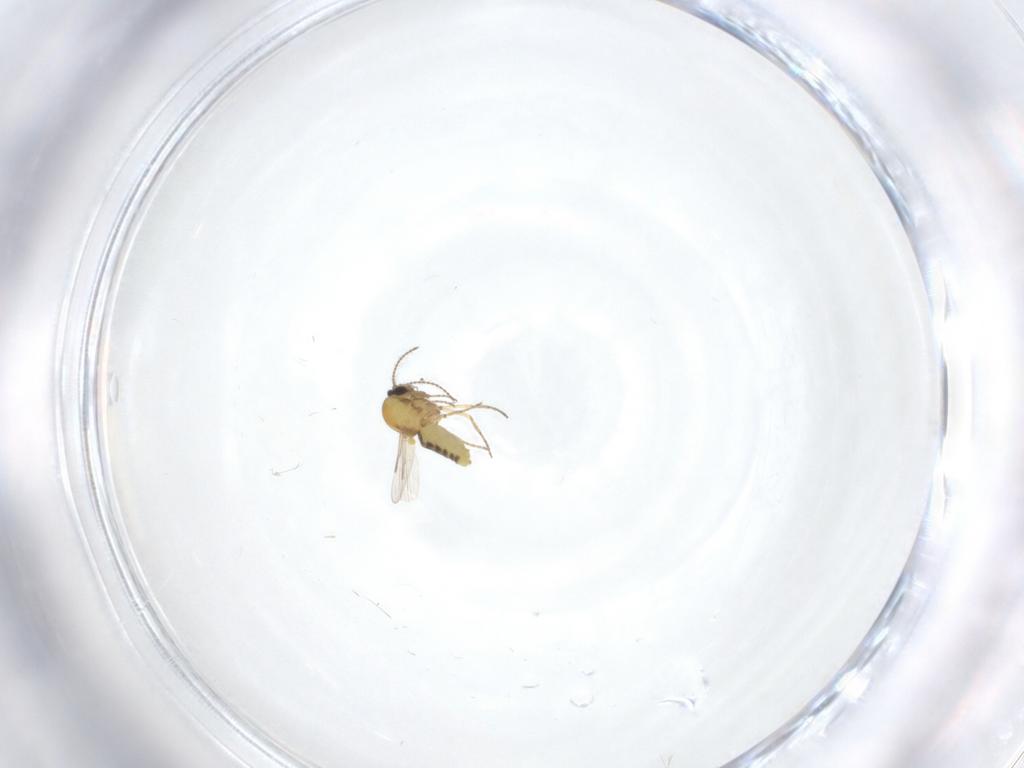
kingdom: Animalia
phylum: Arthropoda
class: Insecta
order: Diptera
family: Ceratopogonidae
